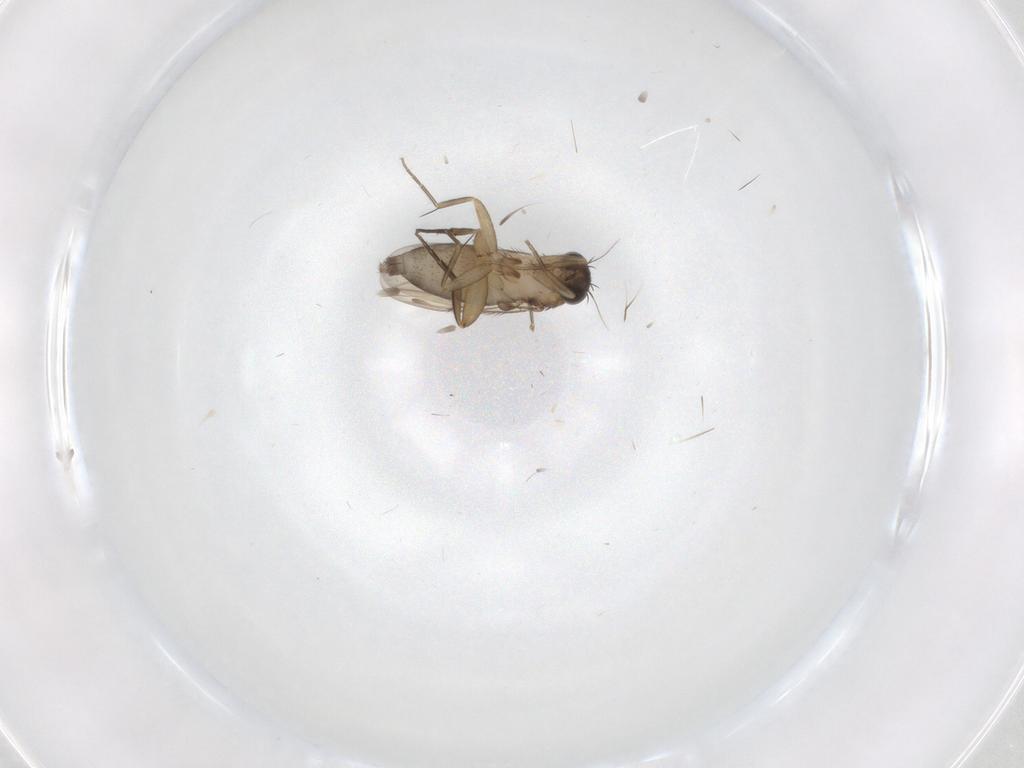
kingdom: Animalia
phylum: Arthropoda
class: Insecta
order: Diptera
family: Phoridae
